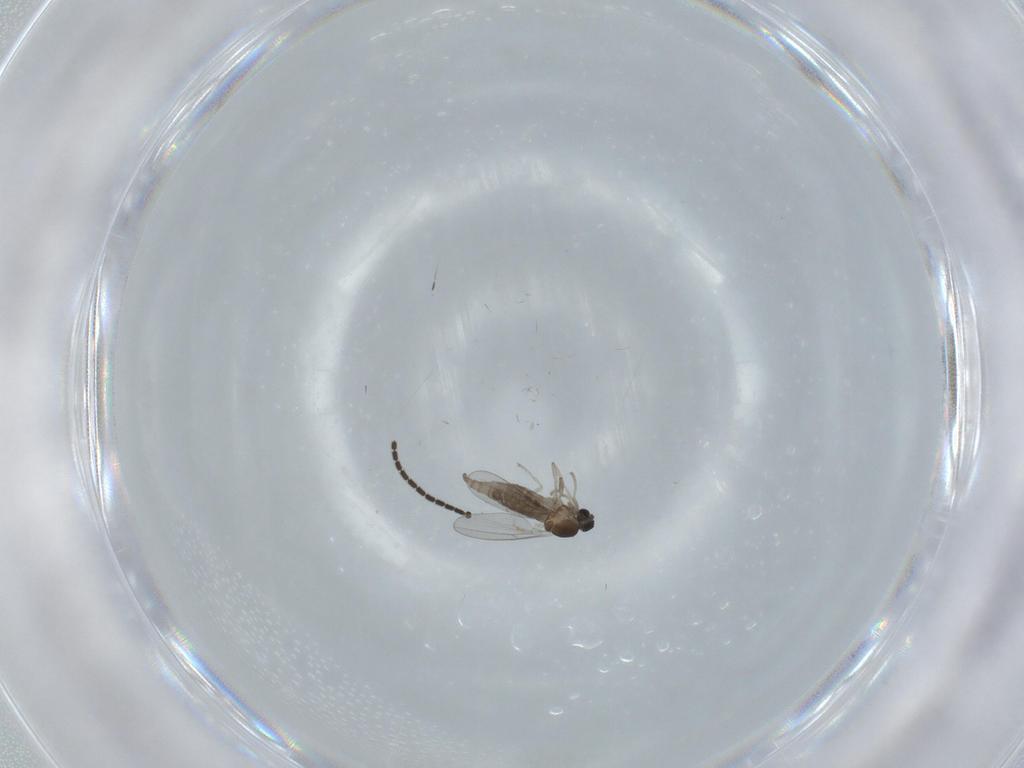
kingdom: Animalia
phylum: Arthropoda
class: Insecta
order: Diptera
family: Cecidomyiidae
